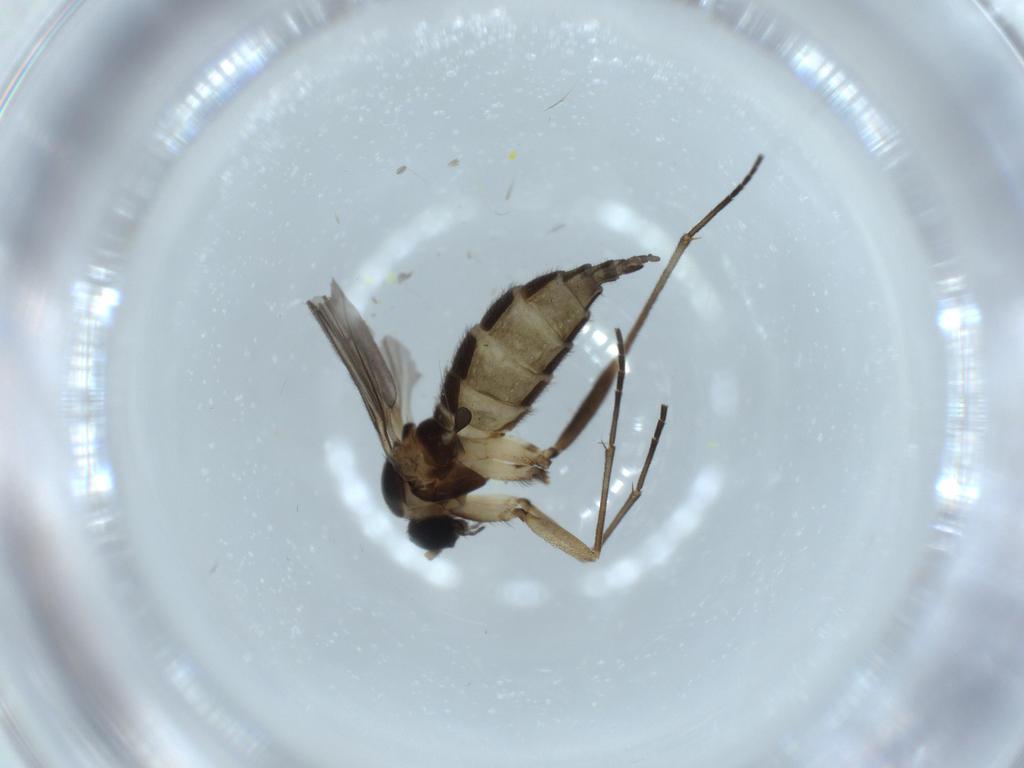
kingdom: Animalia
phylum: Arthropoda
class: Insecta
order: Diptera
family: Sciaridae
